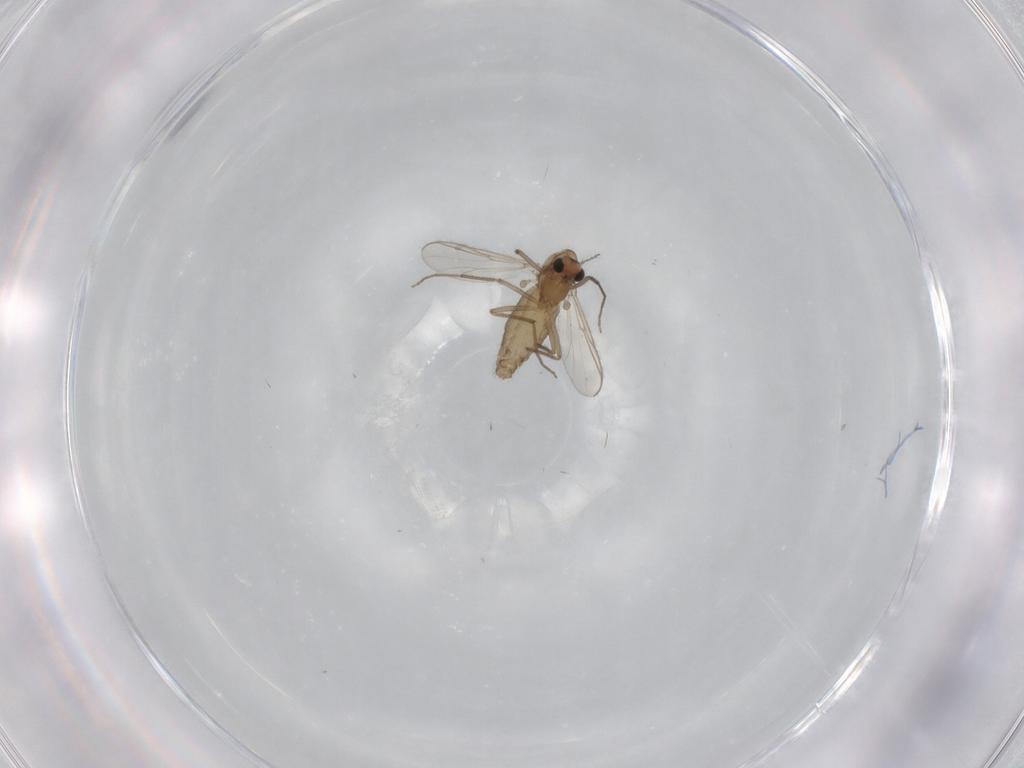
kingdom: Animalia
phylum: Arthropoda
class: Insecta
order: Diptera
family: Chironomidae
